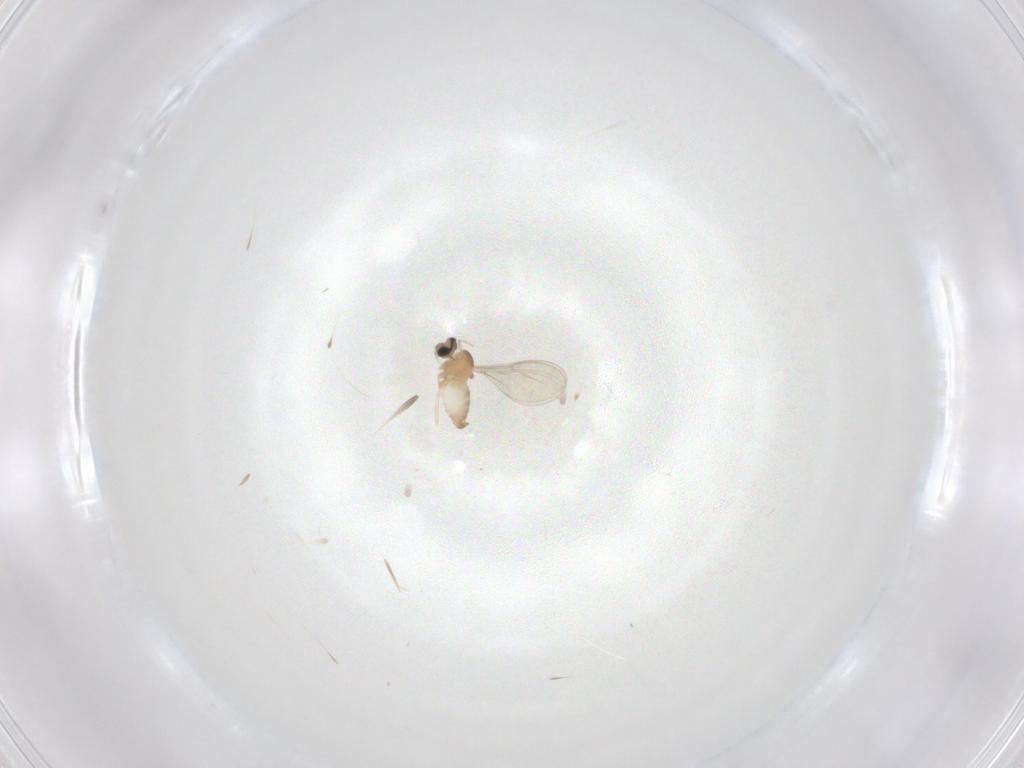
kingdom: Animalia
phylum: Arthropoda
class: Insecta
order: Diptera
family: Cecidomyiidae
